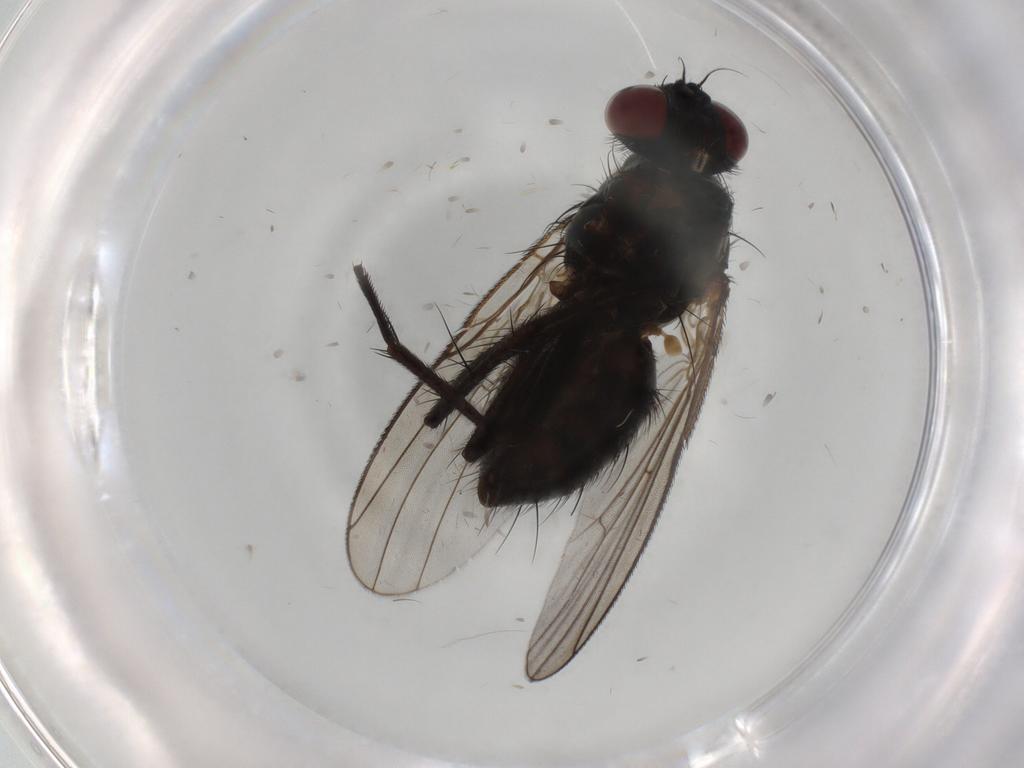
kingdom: Animalia
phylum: Arthropoda
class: Insecta
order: Diptera
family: Muscidae
